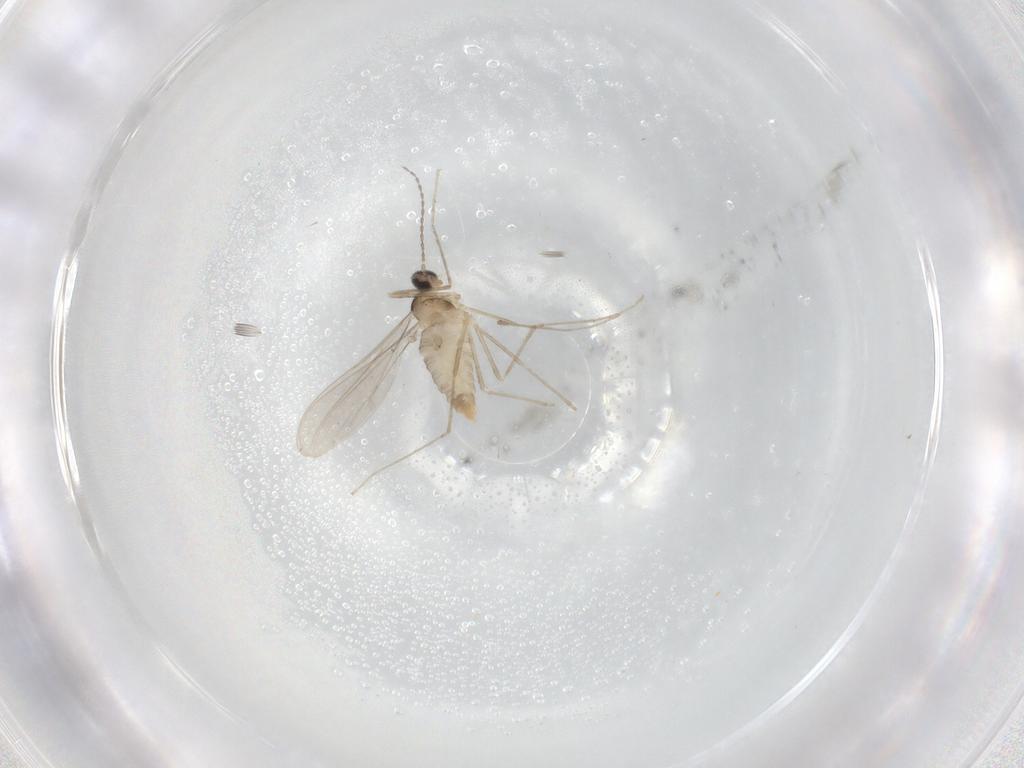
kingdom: Animalia
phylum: Arthropoda
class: Insecta
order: Diptera
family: Cecidomyiidae
